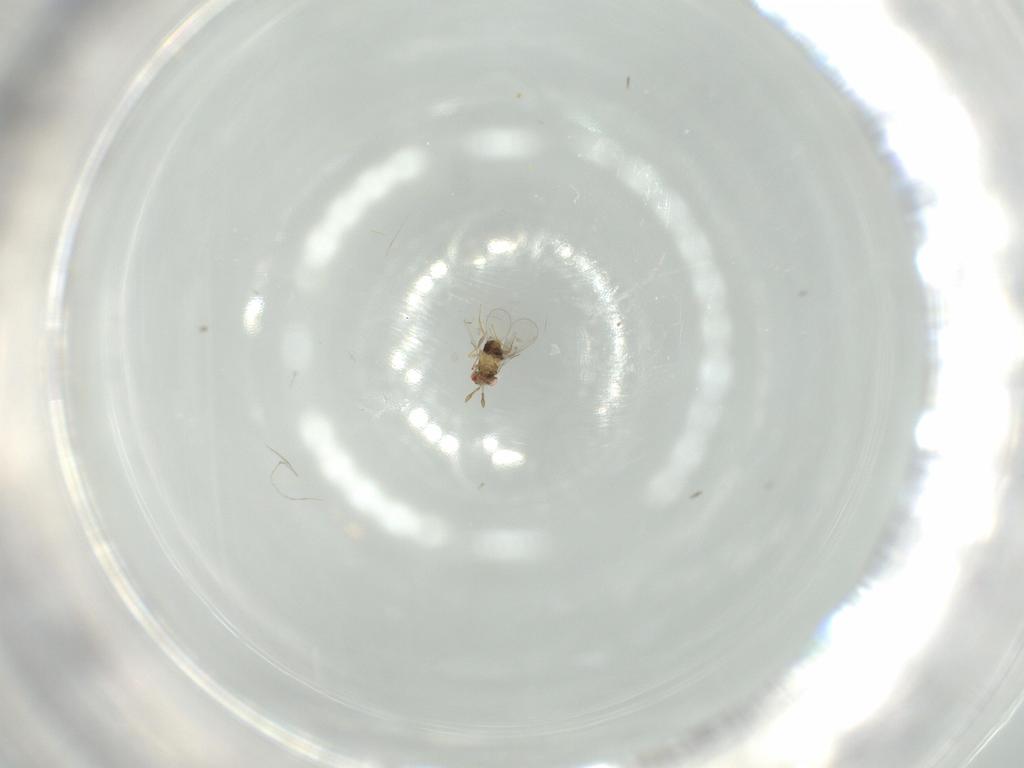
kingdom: Animalia
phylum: Arthropoda
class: Insecta
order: Hymenoptera
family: Trichogrammatidae
